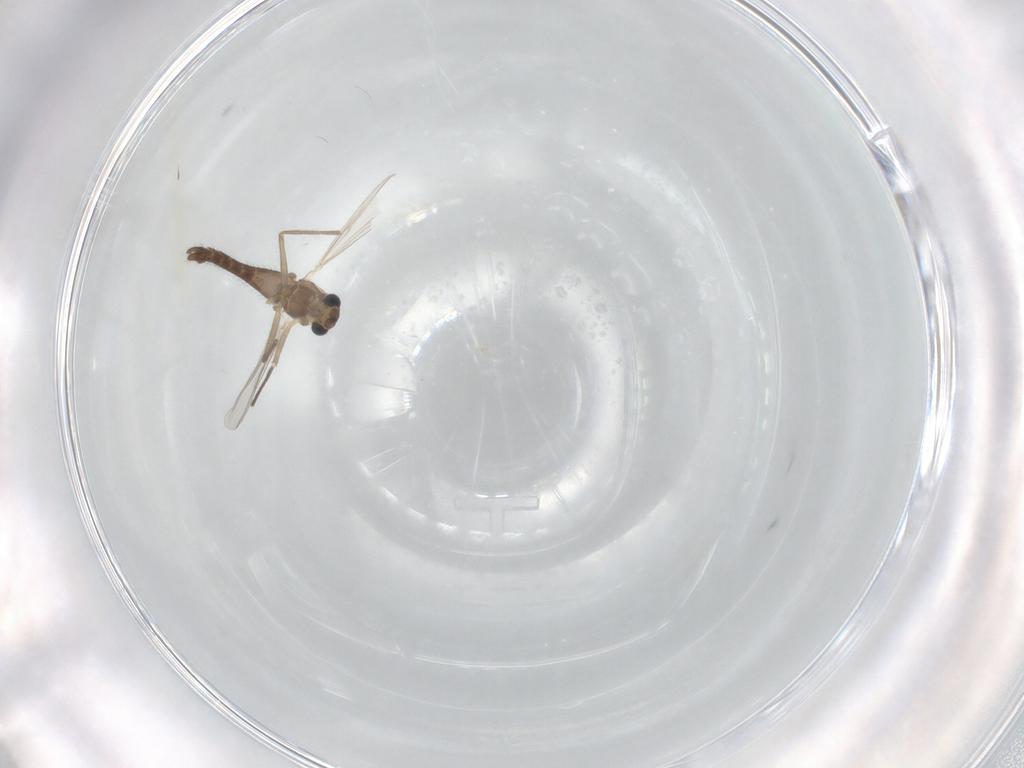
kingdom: Animalia
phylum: Arthropoda
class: Insecta
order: Diptera
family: Chironomidae
